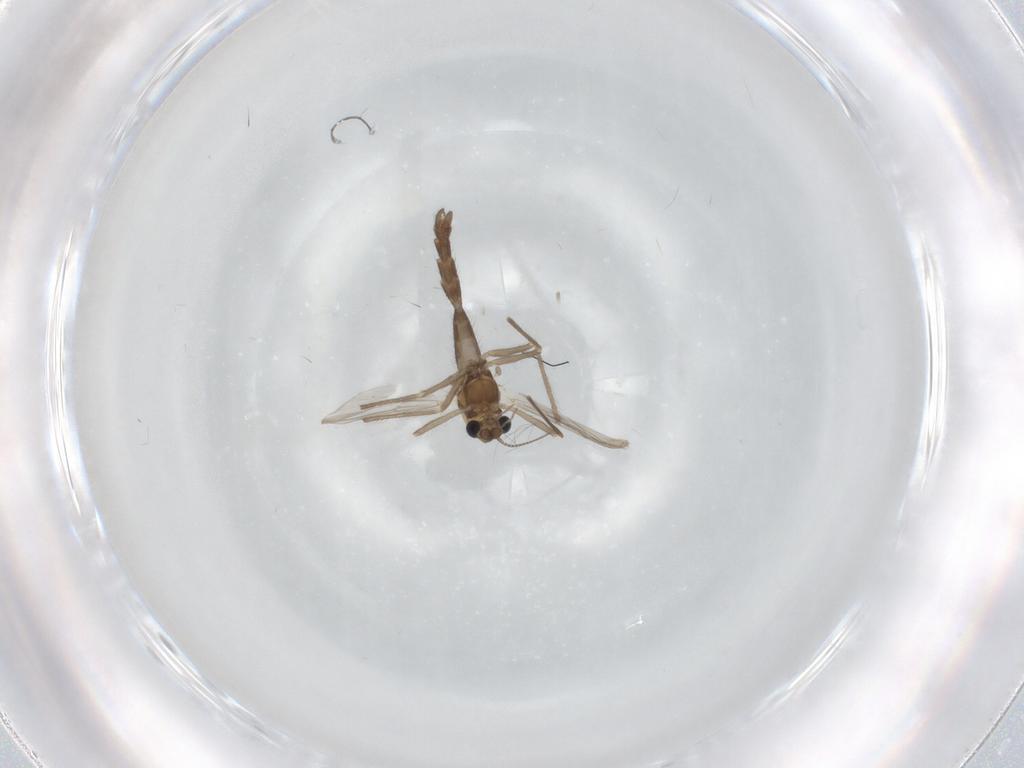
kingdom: Animalia
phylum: Arthropoda
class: Insecta
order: Diptera
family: Chironomidae
